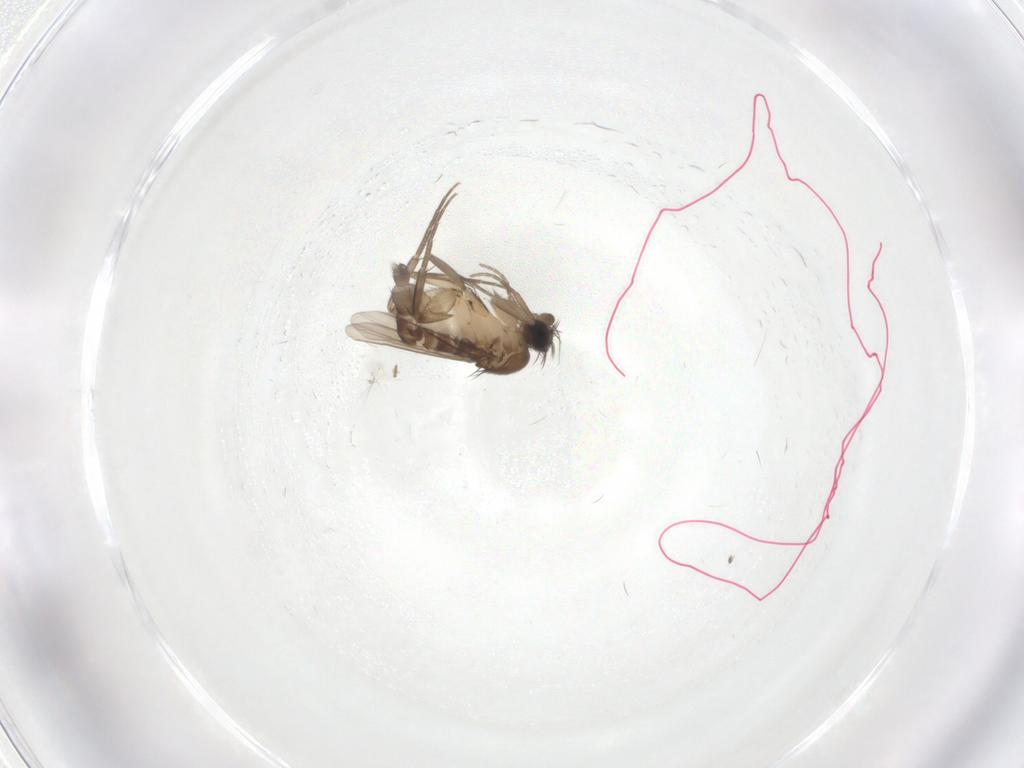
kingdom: Animalia
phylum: Arthropoda
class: Insecta
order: Diptera
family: Phoridae
